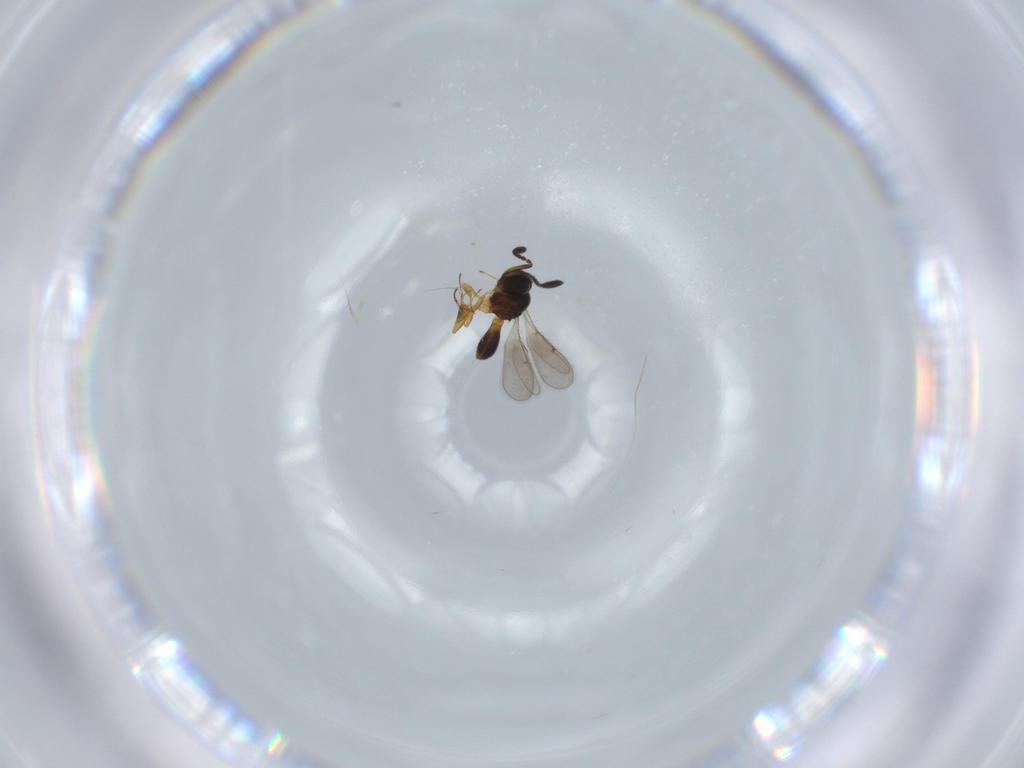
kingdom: Animalia
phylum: Arthropoda
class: Insecta
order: Hymenoptera
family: Scelionidae
